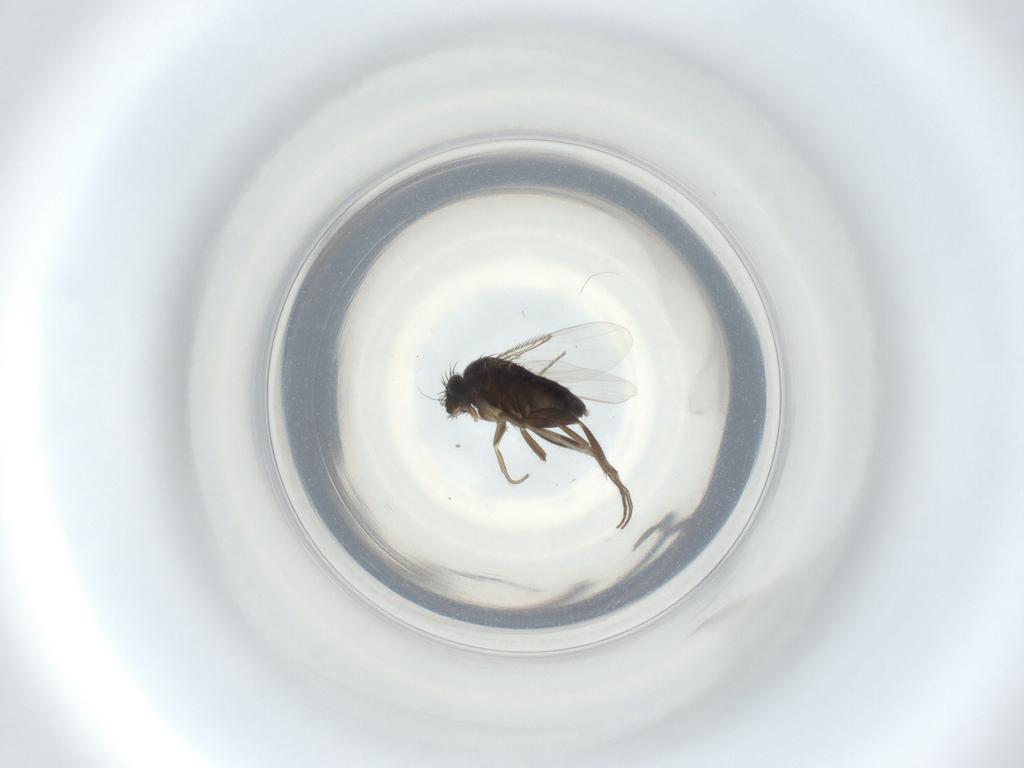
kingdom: Animalia
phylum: Arthropoda
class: Insecta
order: Diptera
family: Phoridae
